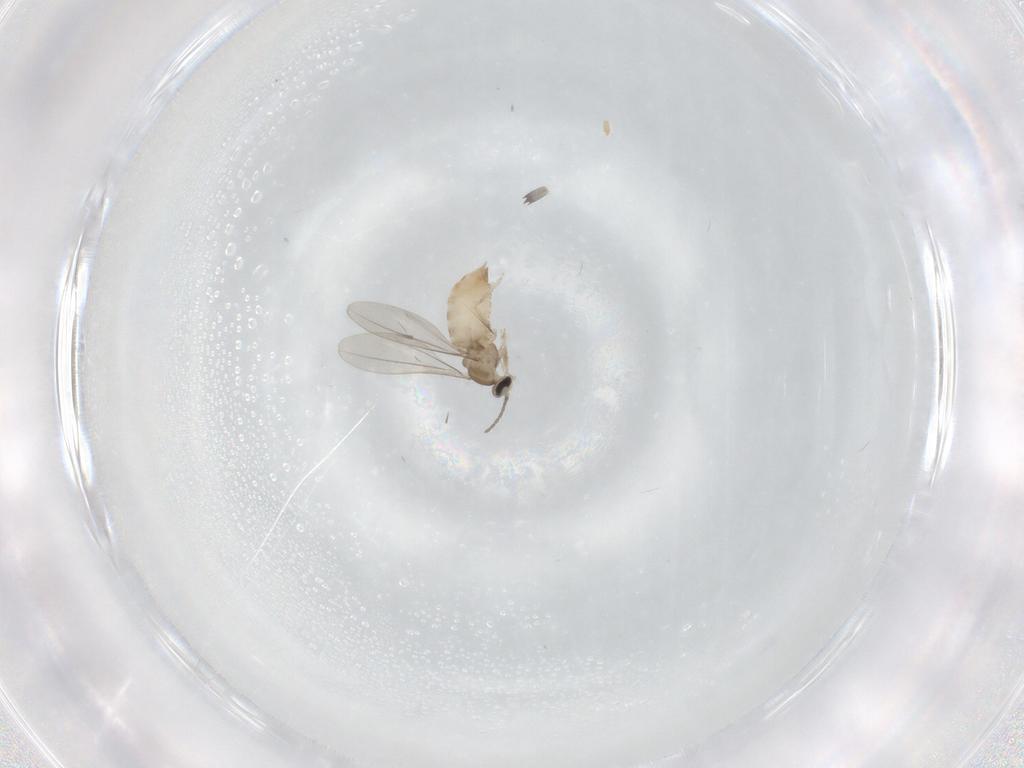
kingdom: Animalia
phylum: Arthropoda
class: Insecta
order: Diptera
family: Cecidomyiidae
